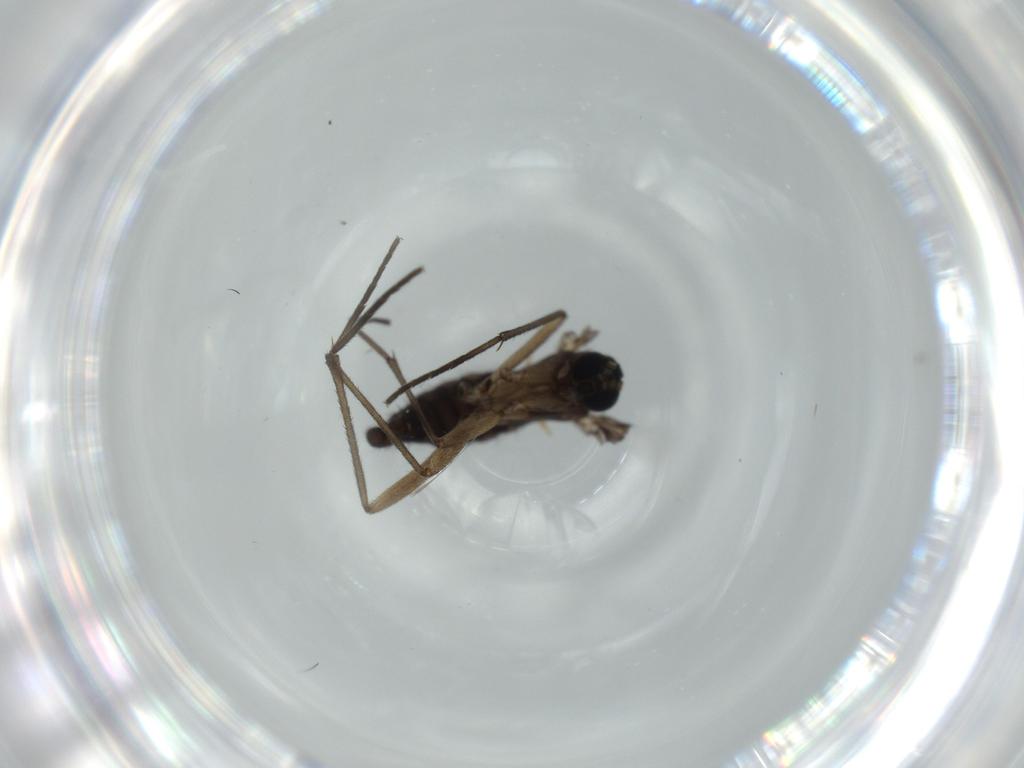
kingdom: Animalia
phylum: Arthropoda
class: Insecta
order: Diptera
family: Sciaridae
